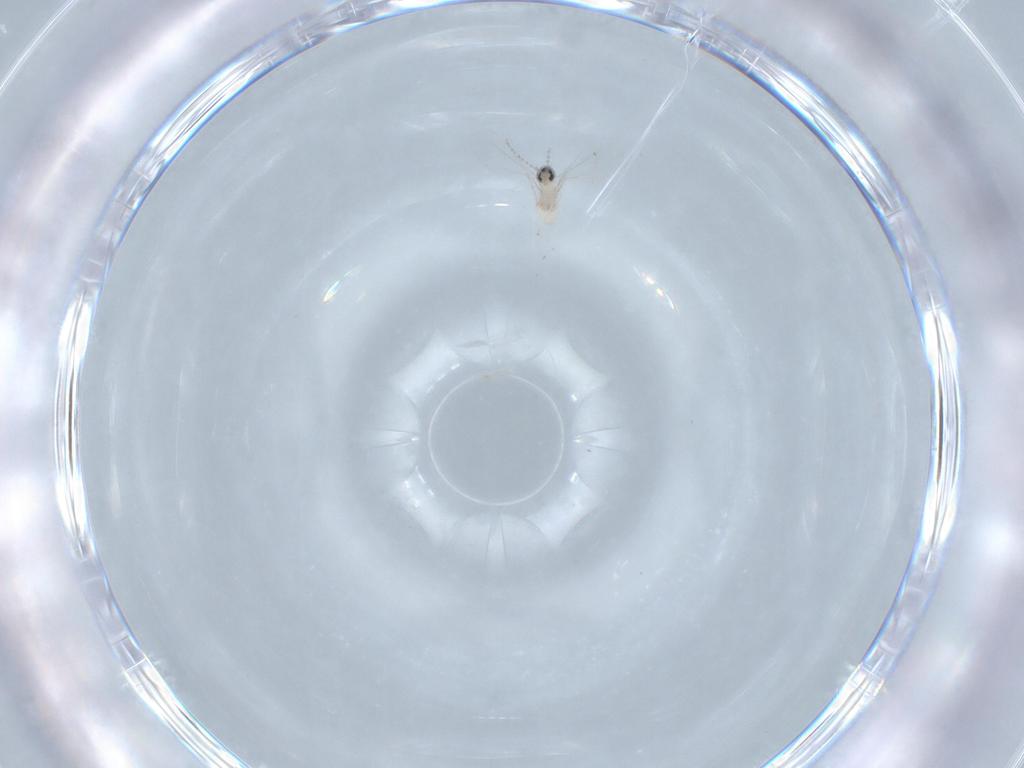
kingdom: Animalia
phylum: Arthropoda
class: Insecta
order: Diptera
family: Cecidomyiidae
